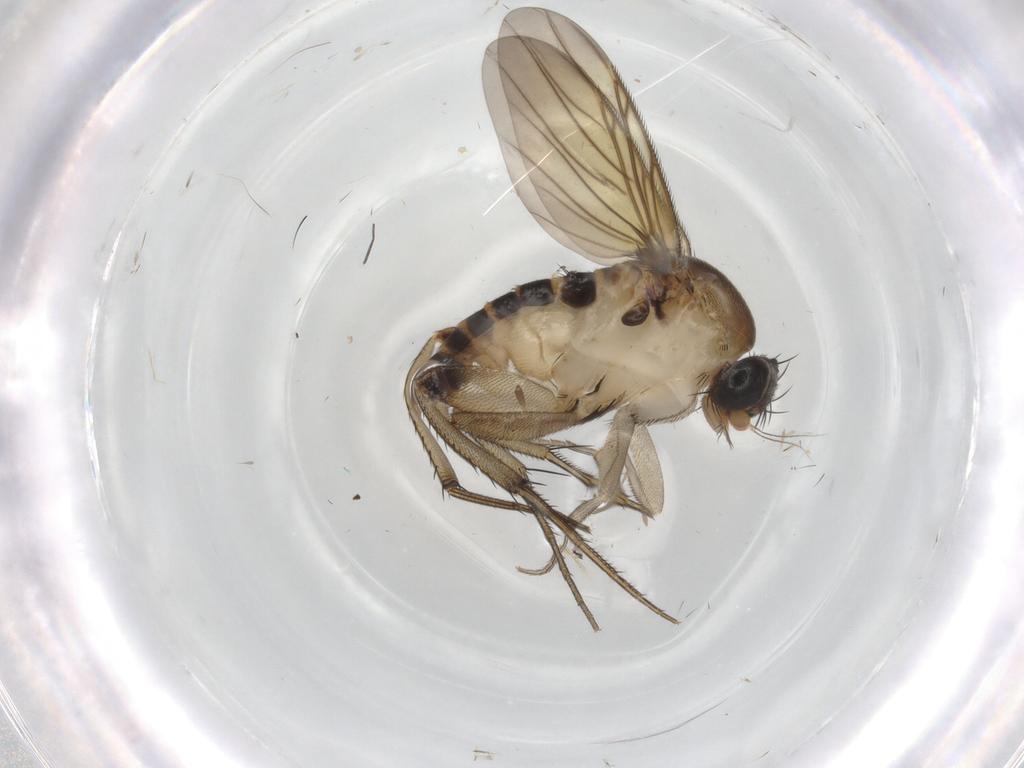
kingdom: Animalia
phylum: Arthropoda
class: Insecta
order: Diptera
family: Phoridae
